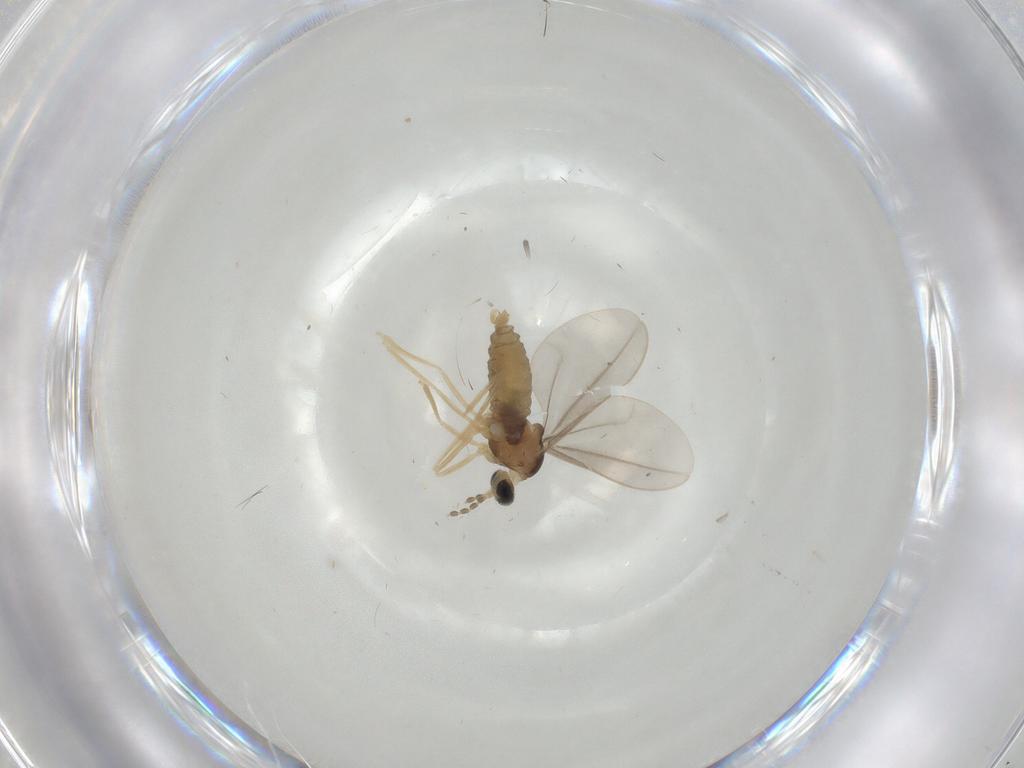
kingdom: Animalia
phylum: Arthropoda
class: Insecta
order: Diptera
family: Cecidomyiidae
